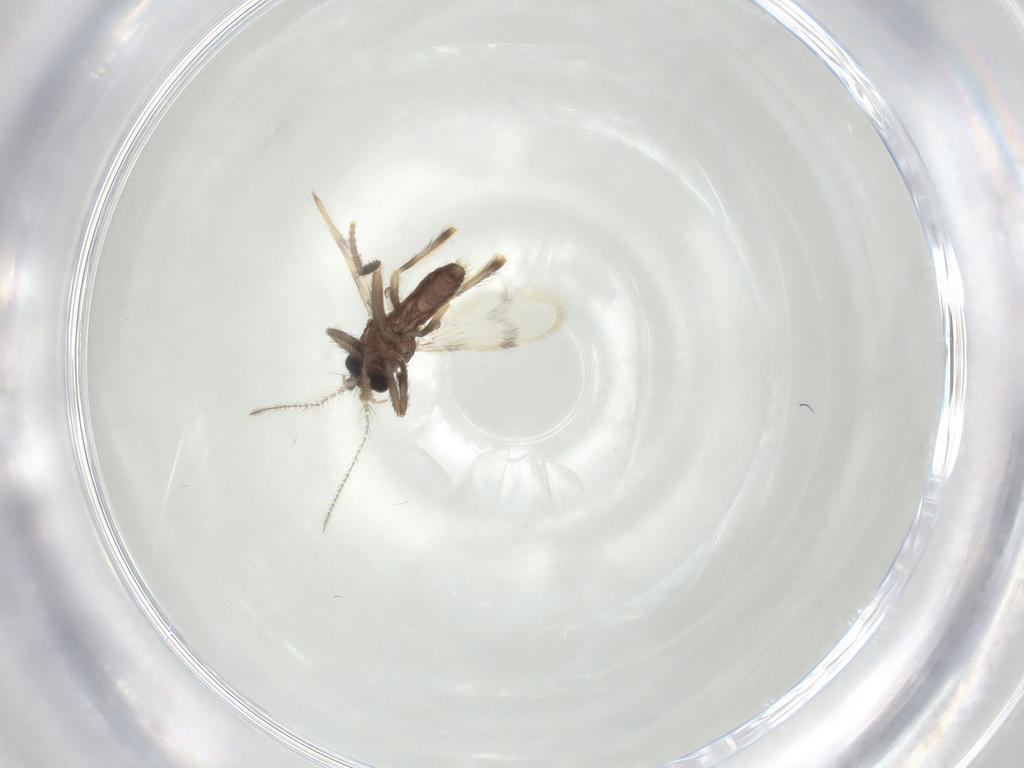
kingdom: Animalia
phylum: Arthropoda
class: Insecta
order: Diptera
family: Corethrellidae
